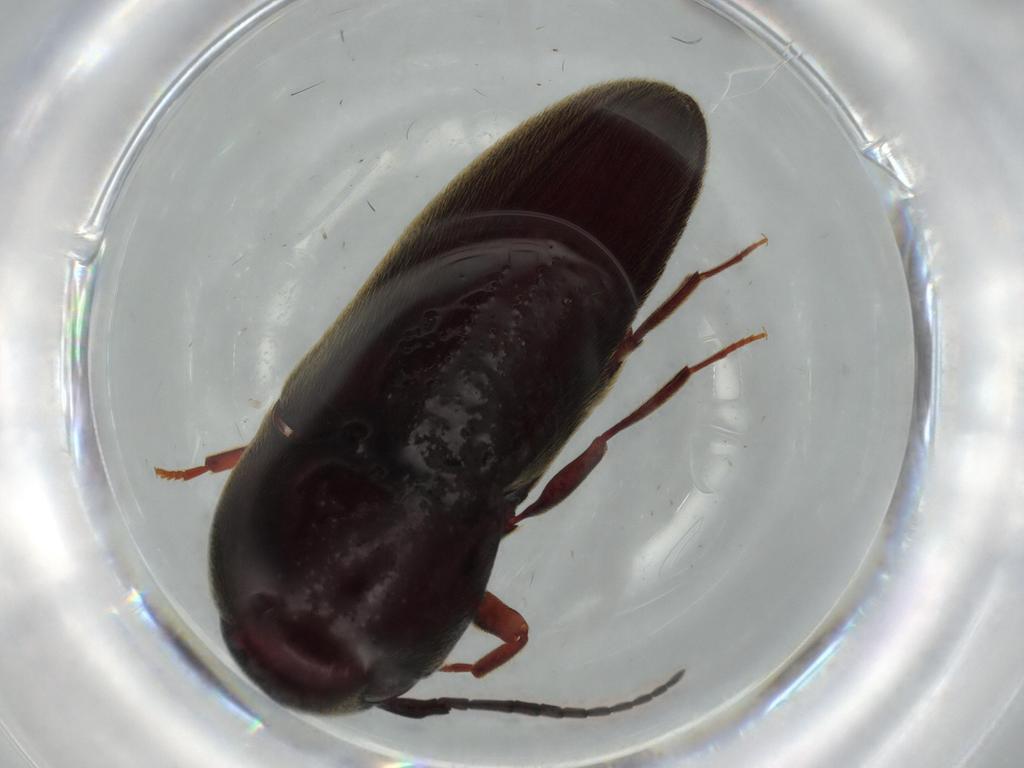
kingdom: Animalia
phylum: Arthropoda
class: Insecta
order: Coleoptera
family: Eucnemidae
